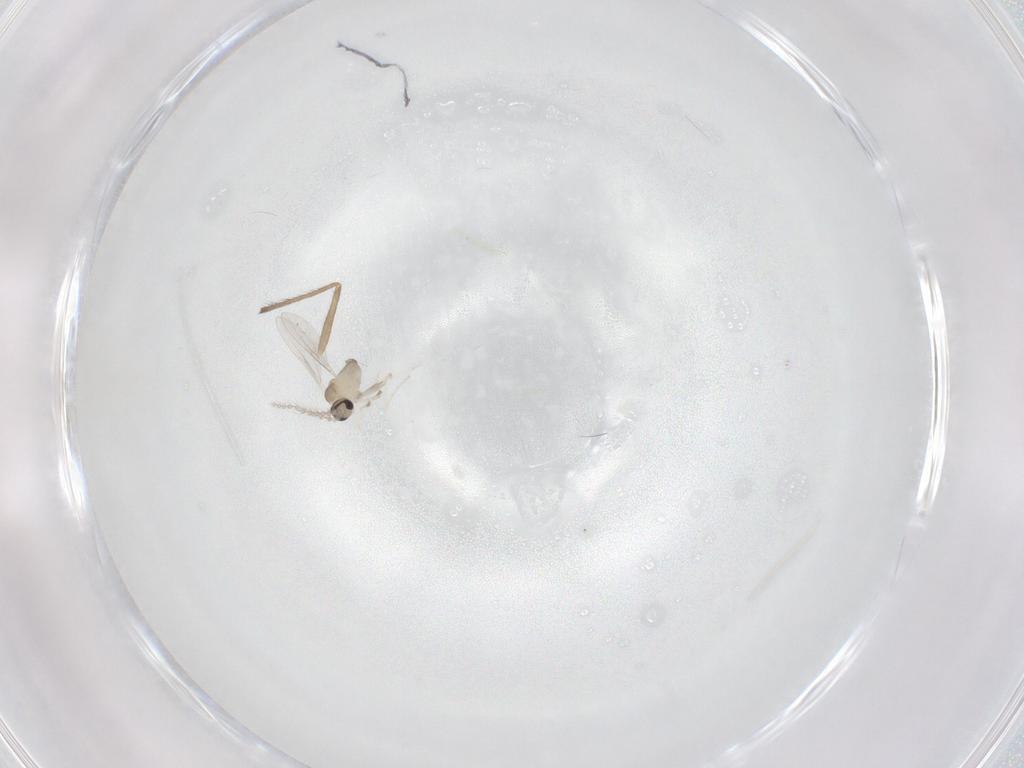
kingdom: Animalia
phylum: Arthropoda
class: Insecta
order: Diptera
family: Cecidomyiidae
